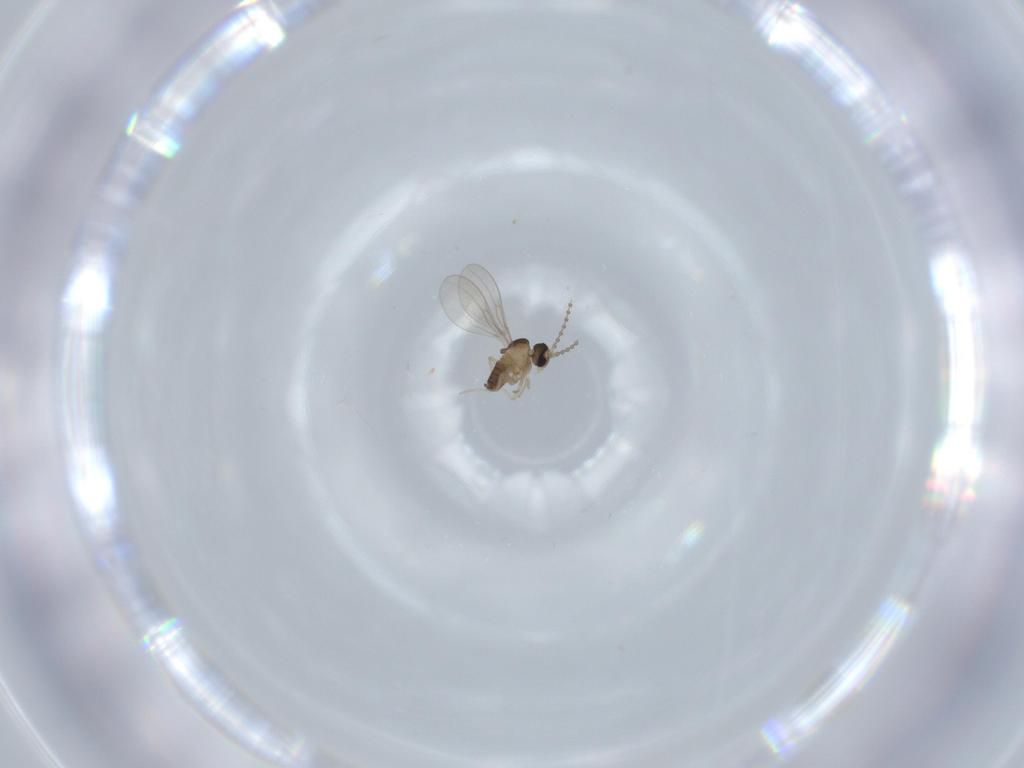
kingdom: Animalia
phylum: Arthropoda
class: Insecta
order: Diptera
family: Cecidomyiidae
